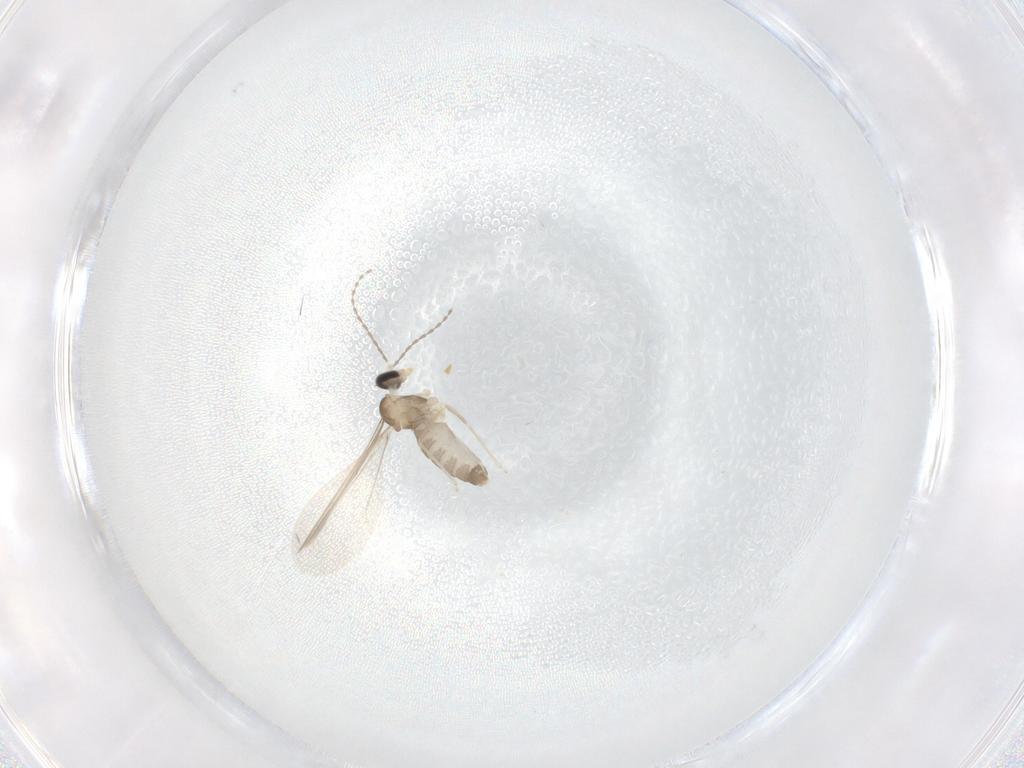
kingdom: Animalia
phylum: Arthropoda
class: Insecta
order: Diptera
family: Cecidomyiidae
